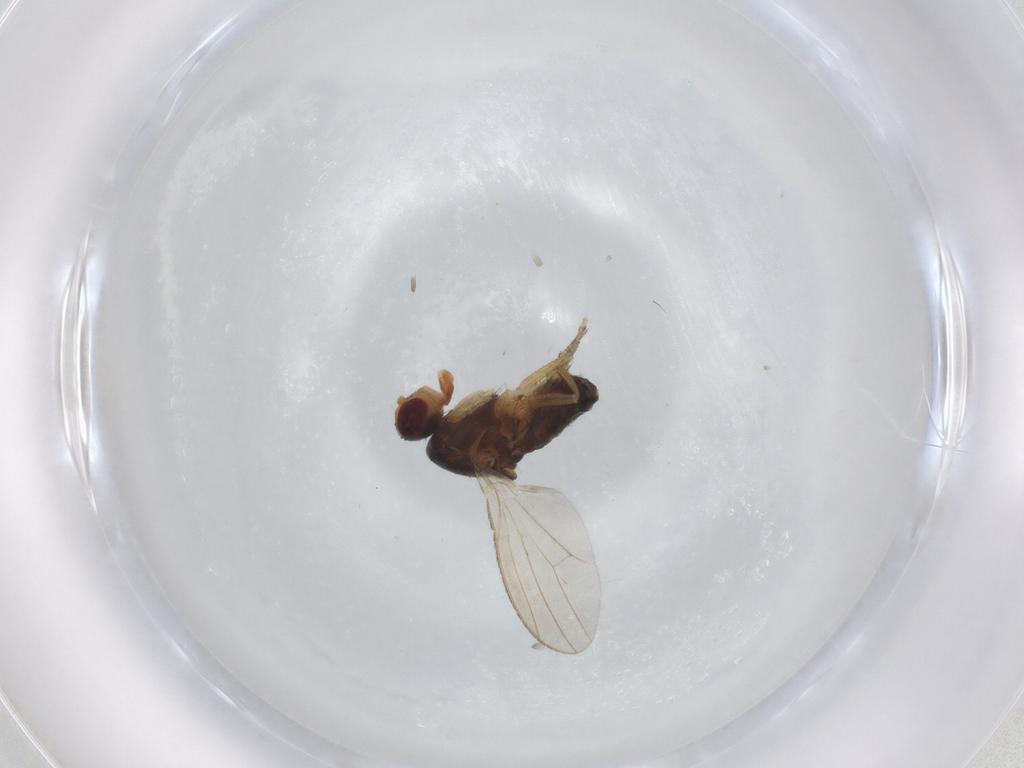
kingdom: Animalia
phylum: Arthropoda
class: Insecta
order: Diptera
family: Heleomyzidae
